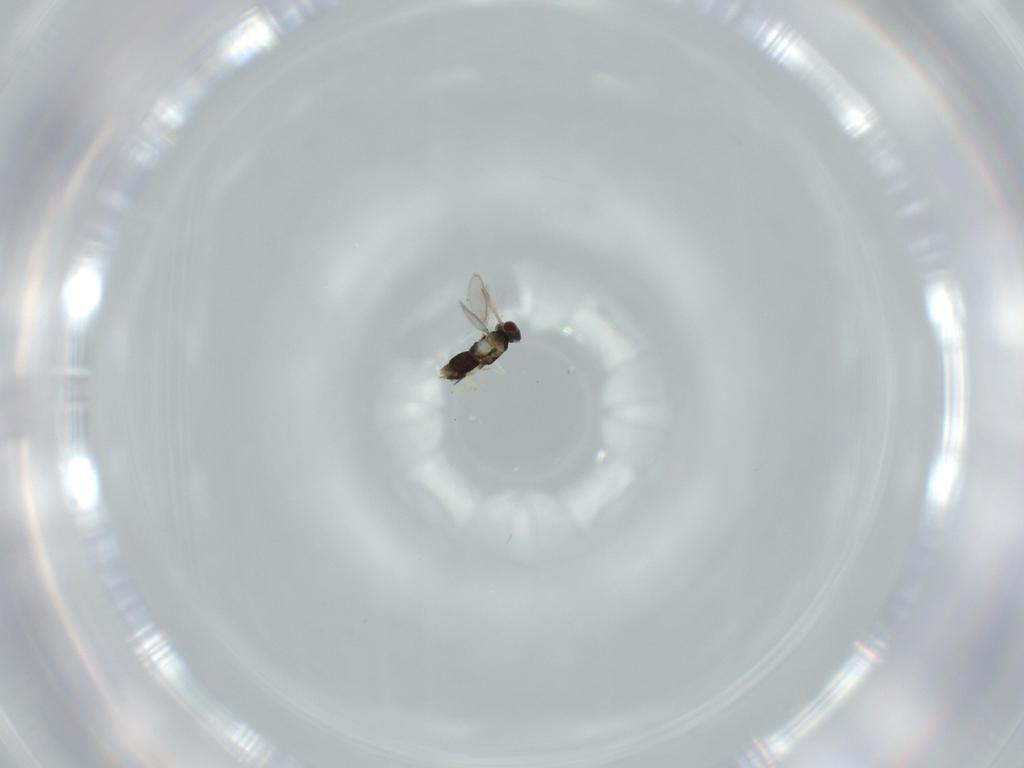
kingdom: Animalia
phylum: Arthropoda
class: Insecta
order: Hymenoptera
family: Aphelinidae
